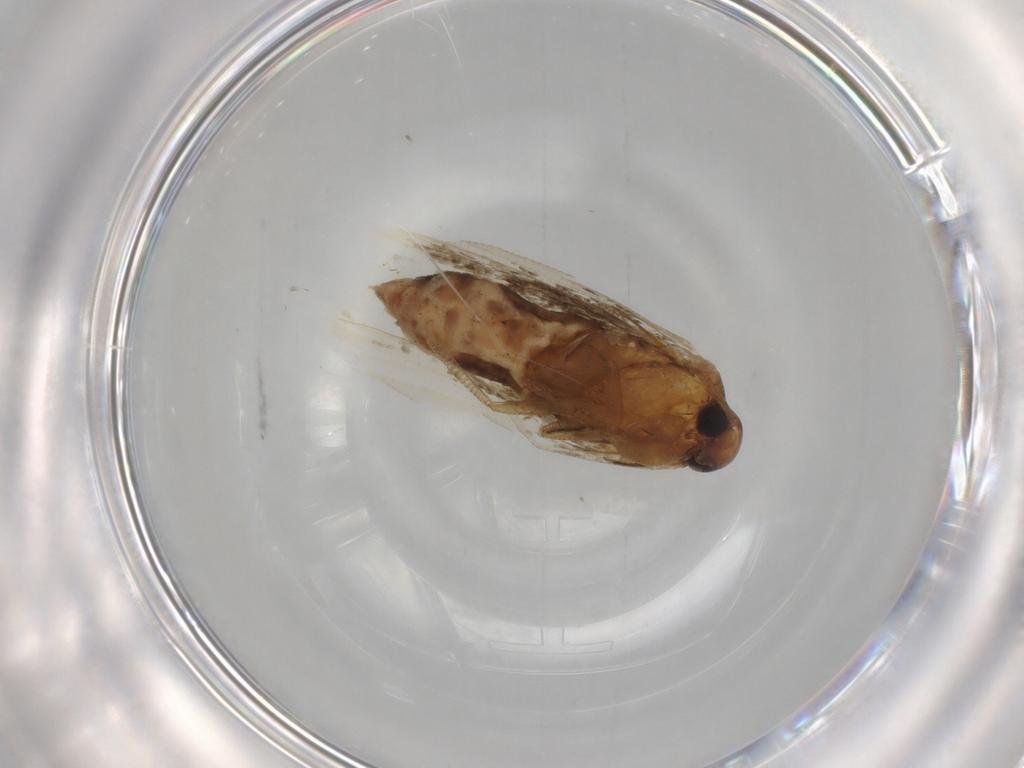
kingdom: Animalia
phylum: Arthropoda
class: Insecta
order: Lepidoptera
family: Cosmopterigidae
